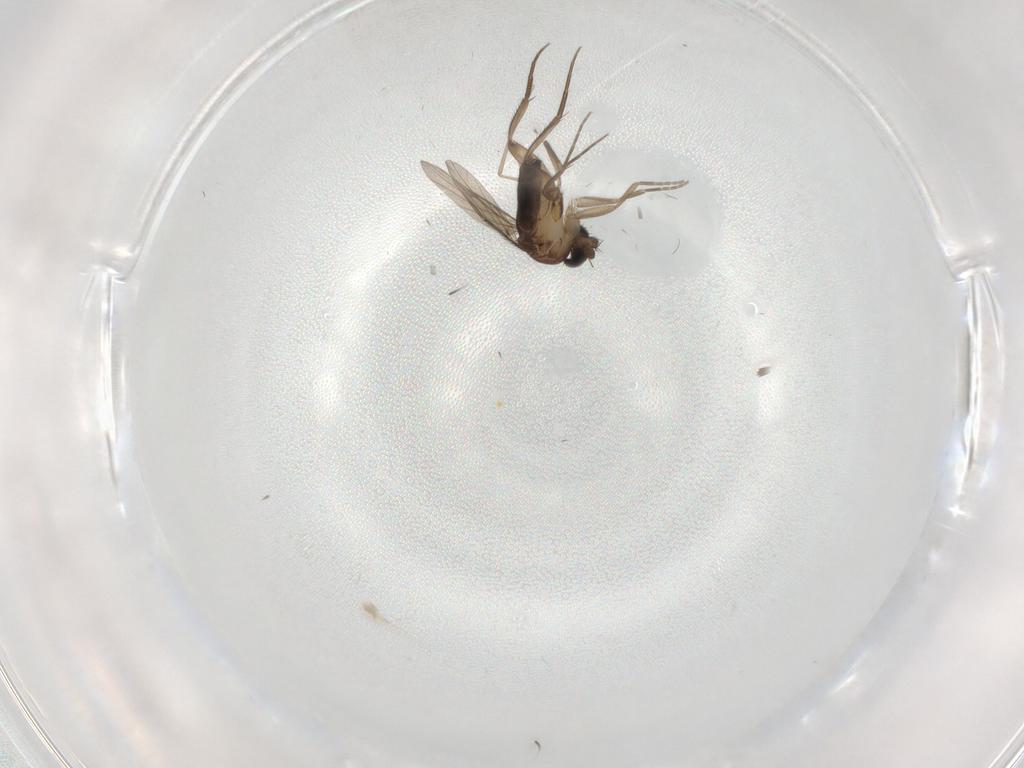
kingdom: Animalia
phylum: Arthropoda
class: Insecta
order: Diptera
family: Phoridae
